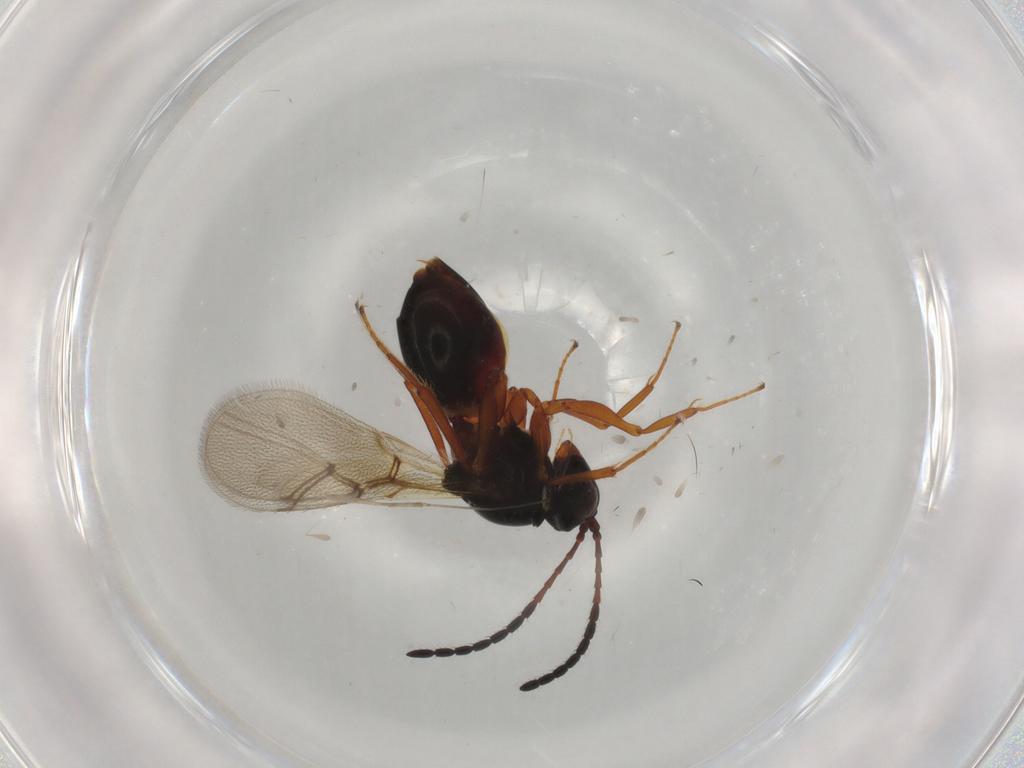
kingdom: Animalia
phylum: Arthropoda
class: Insecta
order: Hymenoptera
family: Figitidae
